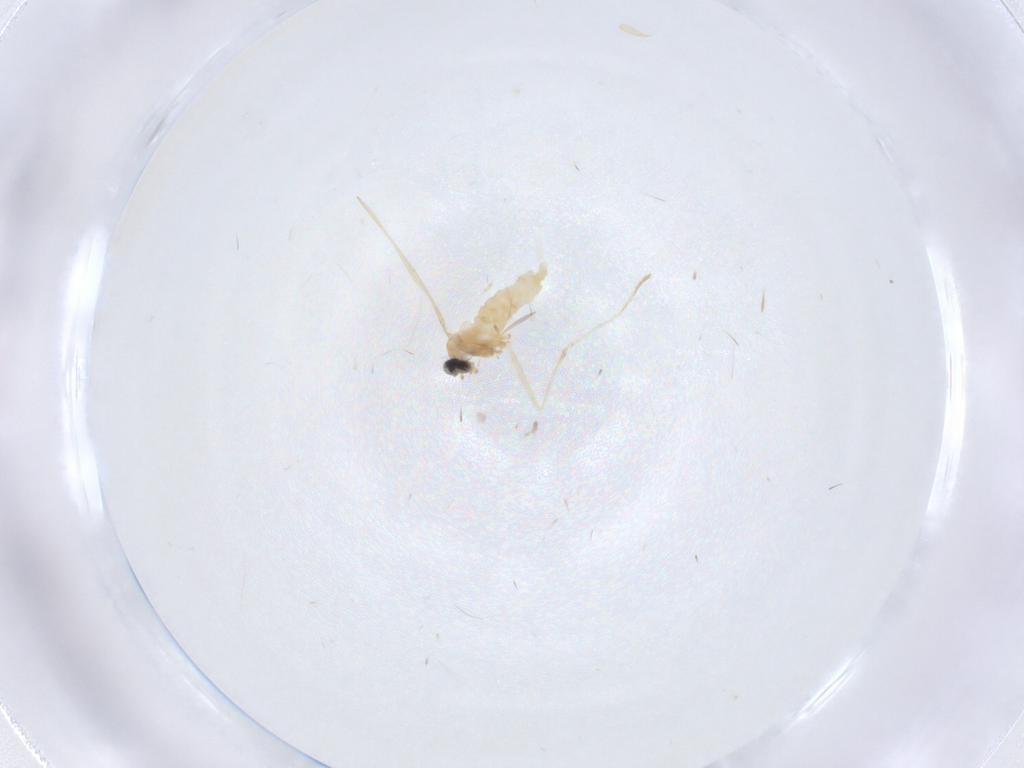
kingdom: Animalia
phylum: Arthropoda
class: Insecta
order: Diptera
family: Cecidomyiidae
